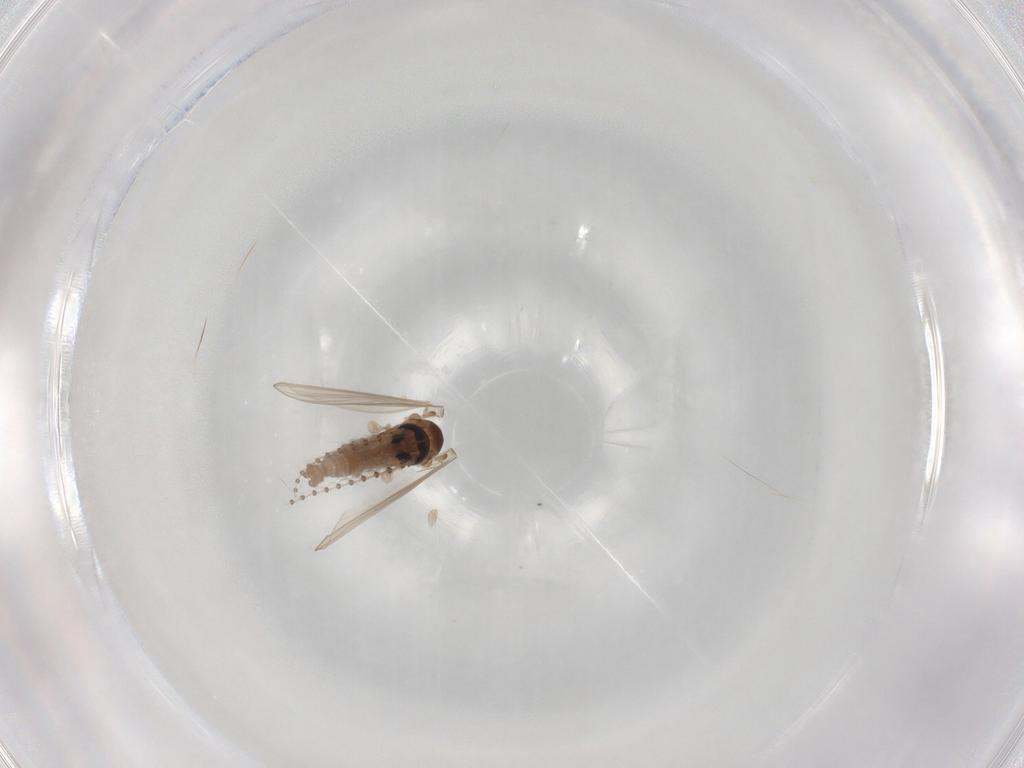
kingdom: Animalia
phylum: Arthropoda
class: Insecta
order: Diptera
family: Psychodidae
